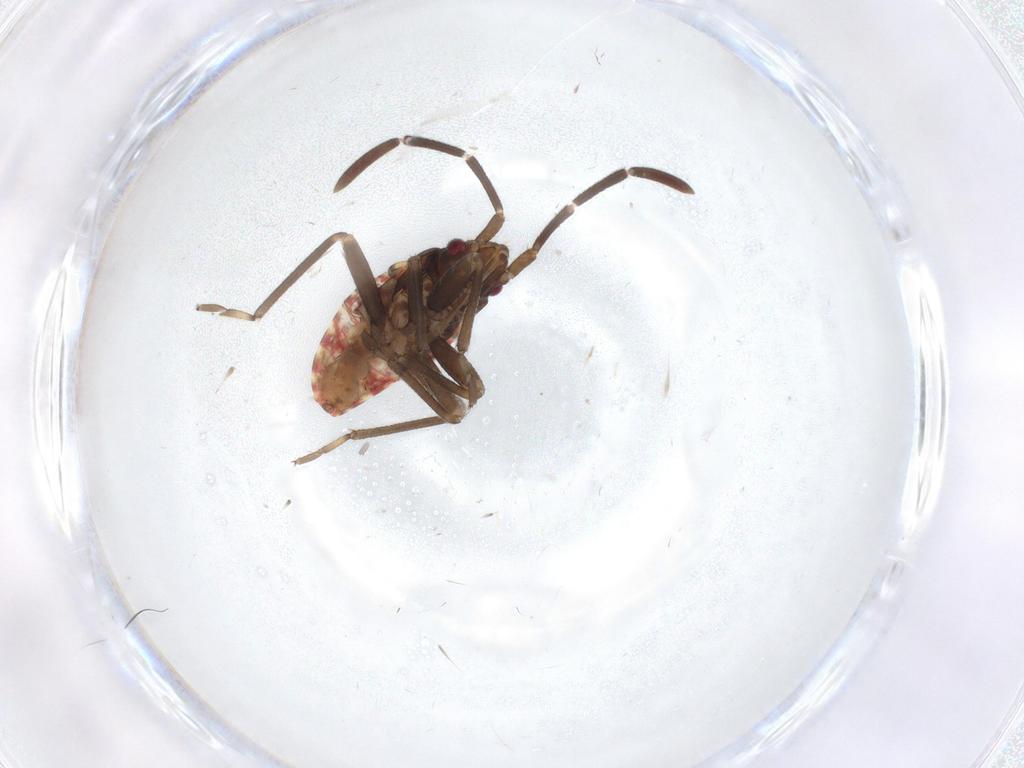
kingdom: Animalia
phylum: Arthropoda
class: Insecta
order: Hemiptera
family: Rhyparochromidae
